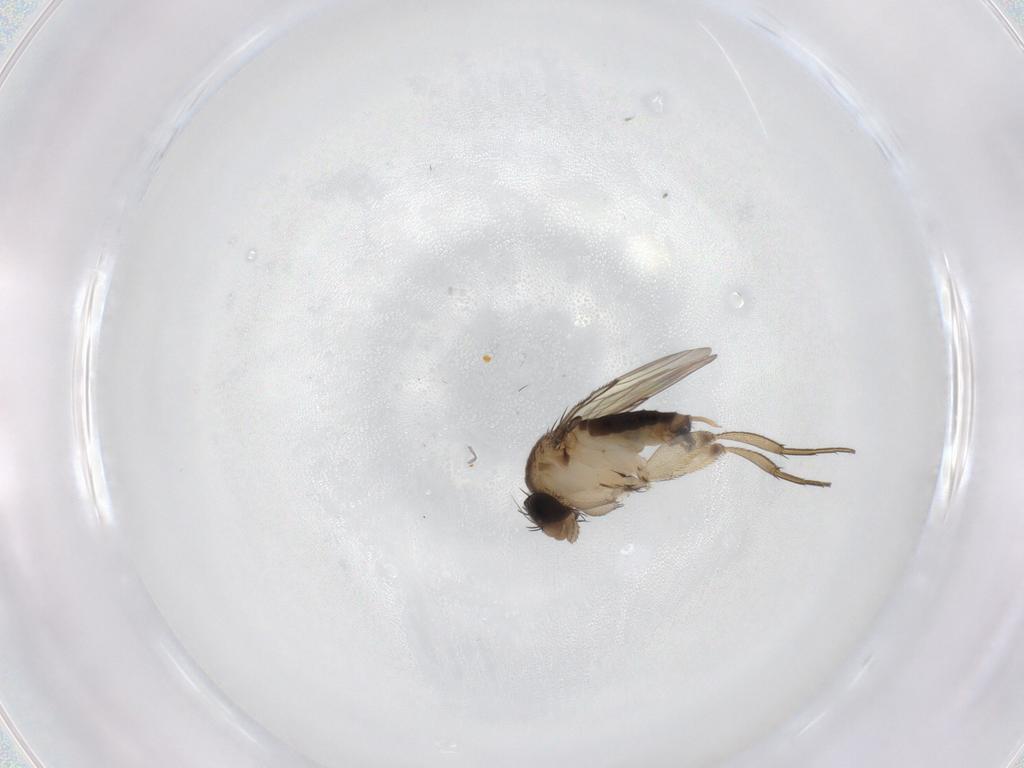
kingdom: Animalia
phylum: Arthropoda
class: Insecta
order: Diptera
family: Phoridae
